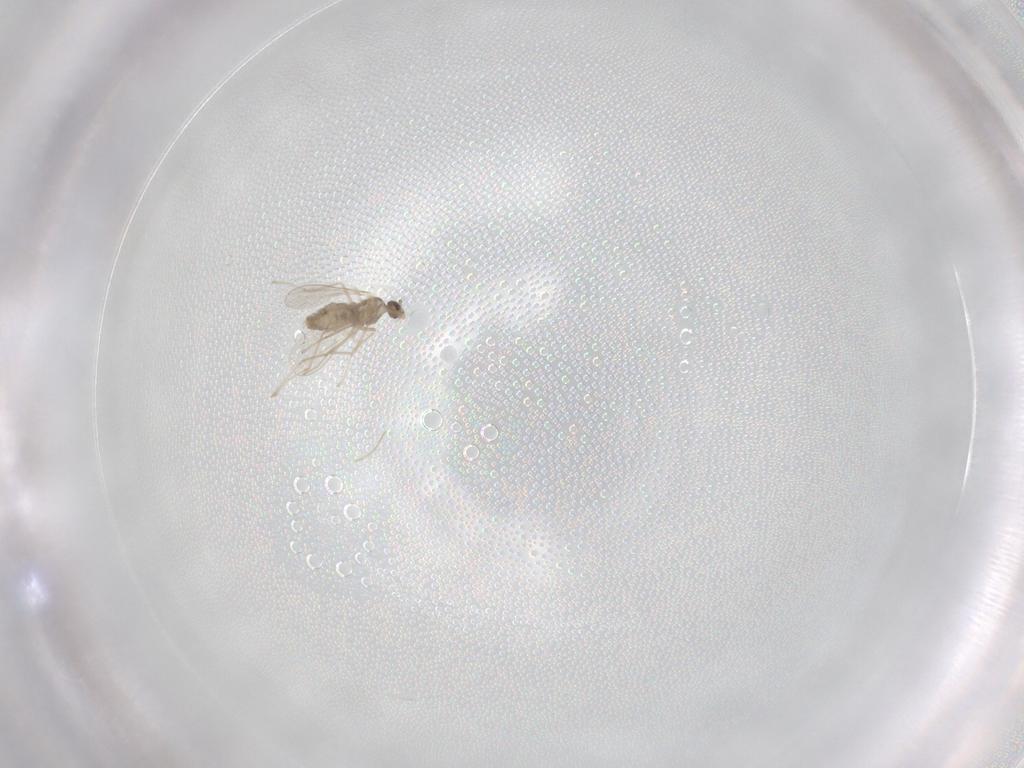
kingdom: Animalia
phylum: Arthropoda
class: Insecta
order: Diptera
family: Cecidomyiidae
